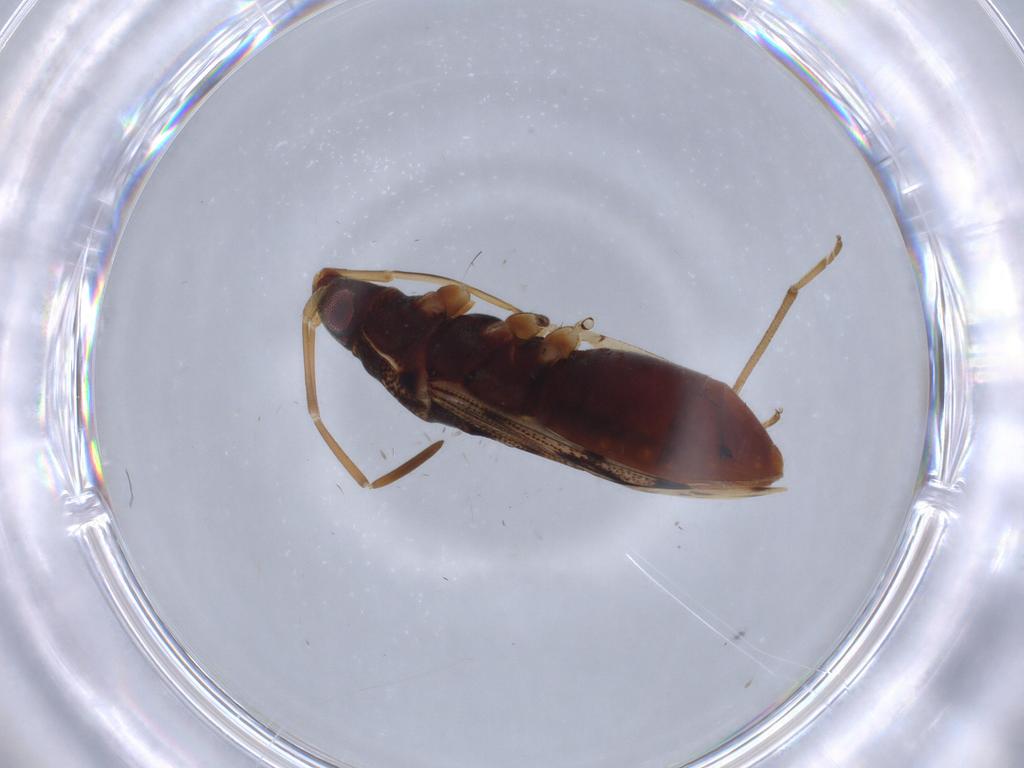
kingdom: Animalia
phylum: Arthropoda
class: Insecta
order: Hemiptera
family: Rhyparochromidae
